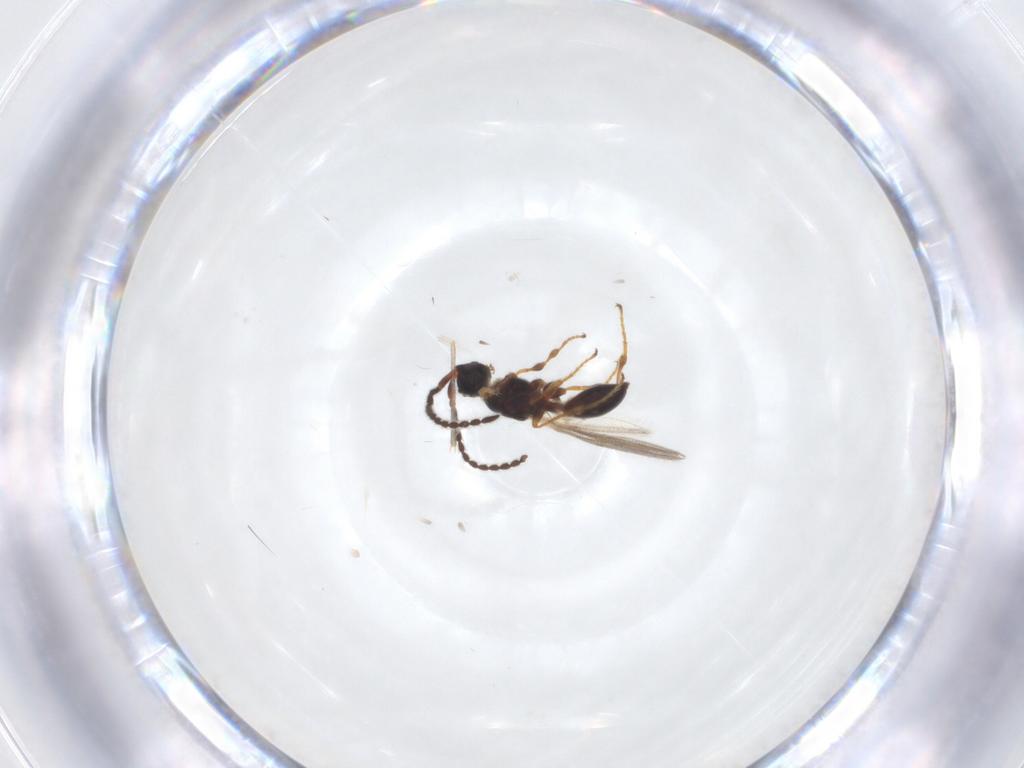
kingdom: Animalia
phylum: Arthropoda
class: Insecta
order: Hymenoptera
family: Diapriidae
